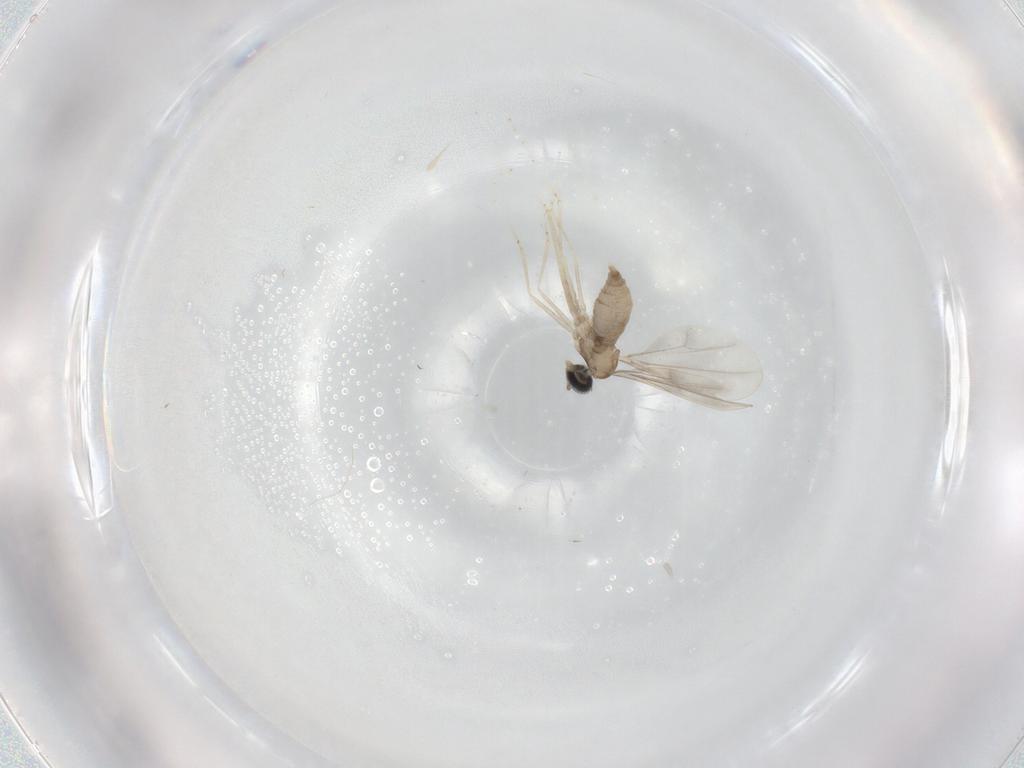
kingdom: Animalia
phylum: Arthropoda
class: Insecta
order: Diptera
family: Cecidomyiidae
